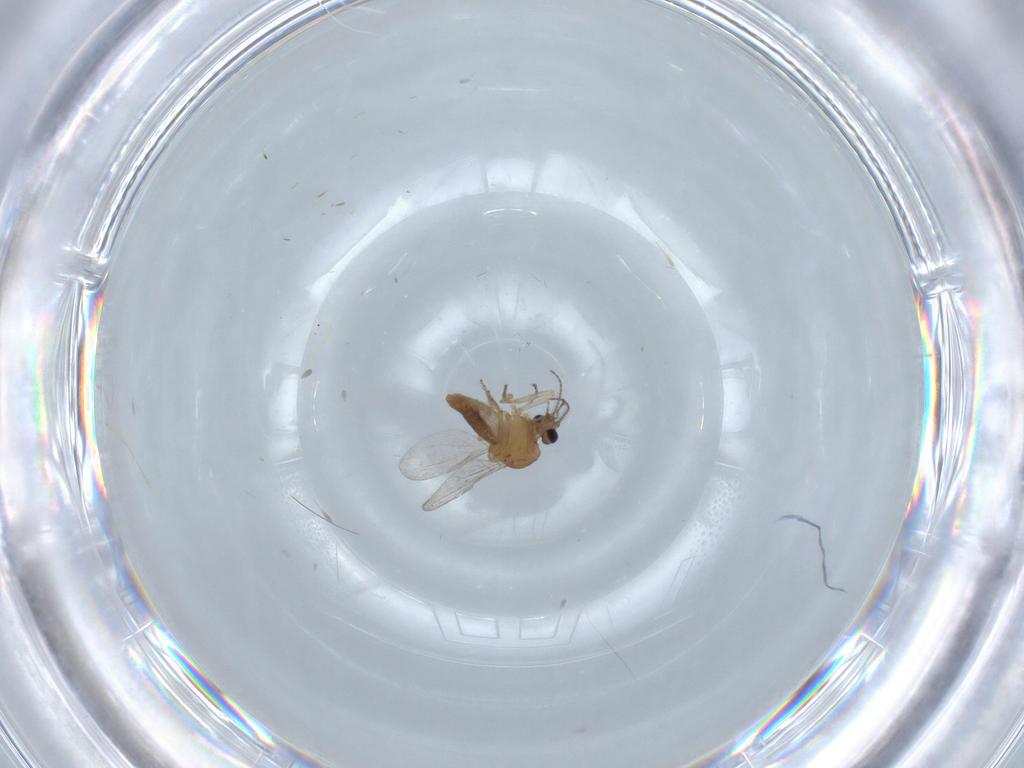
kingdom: Animalia
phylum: Arthropoda
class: Insecta
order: Diptera
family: Ceratopogonidae
